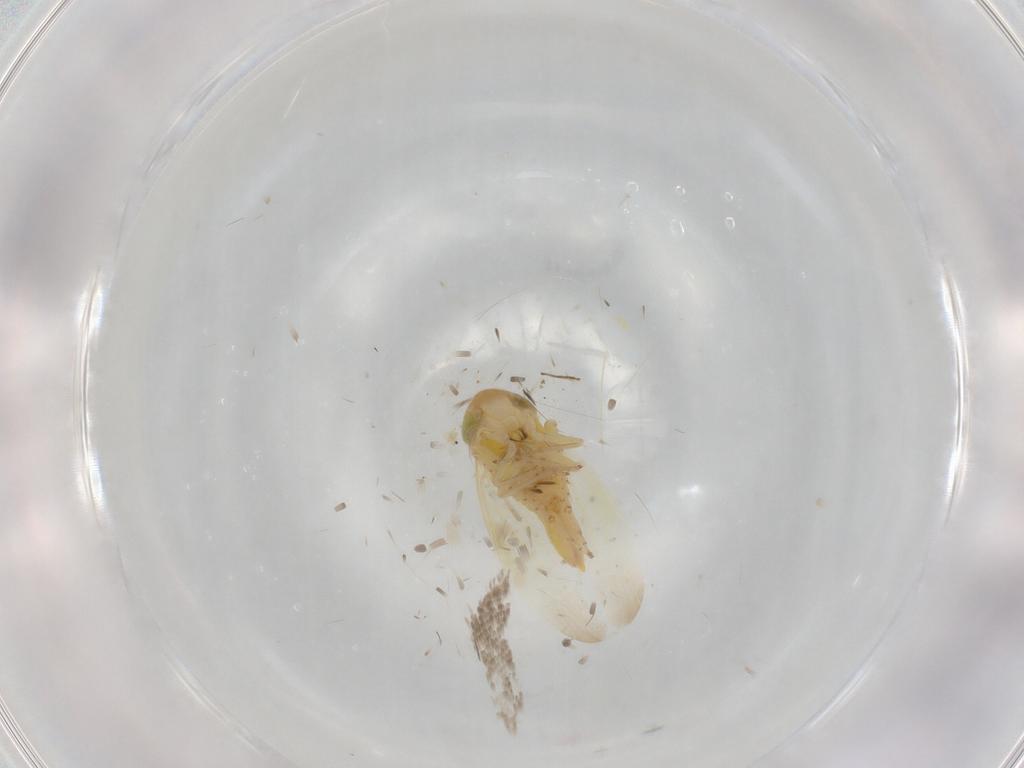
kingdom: Animalia
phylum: Arthropoda
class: Insecta
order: Hemiptera
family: Cicadellidae
